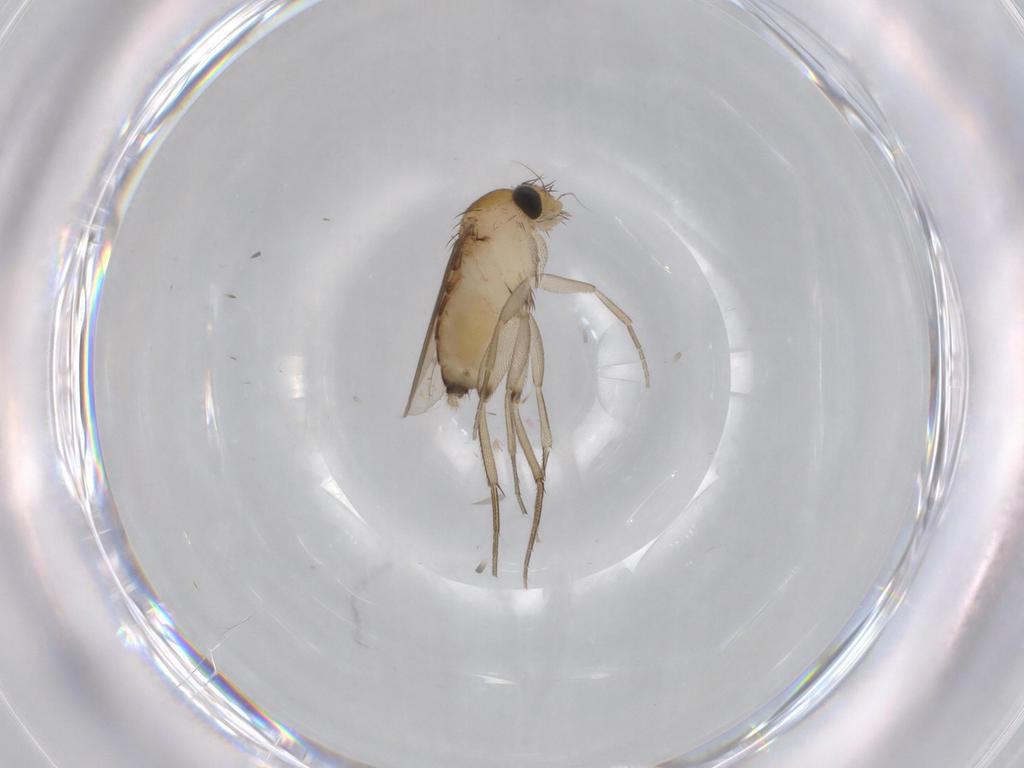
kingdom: Animalia
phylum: Arthropoda
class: Insecta
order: Diptera
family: Phoridae
